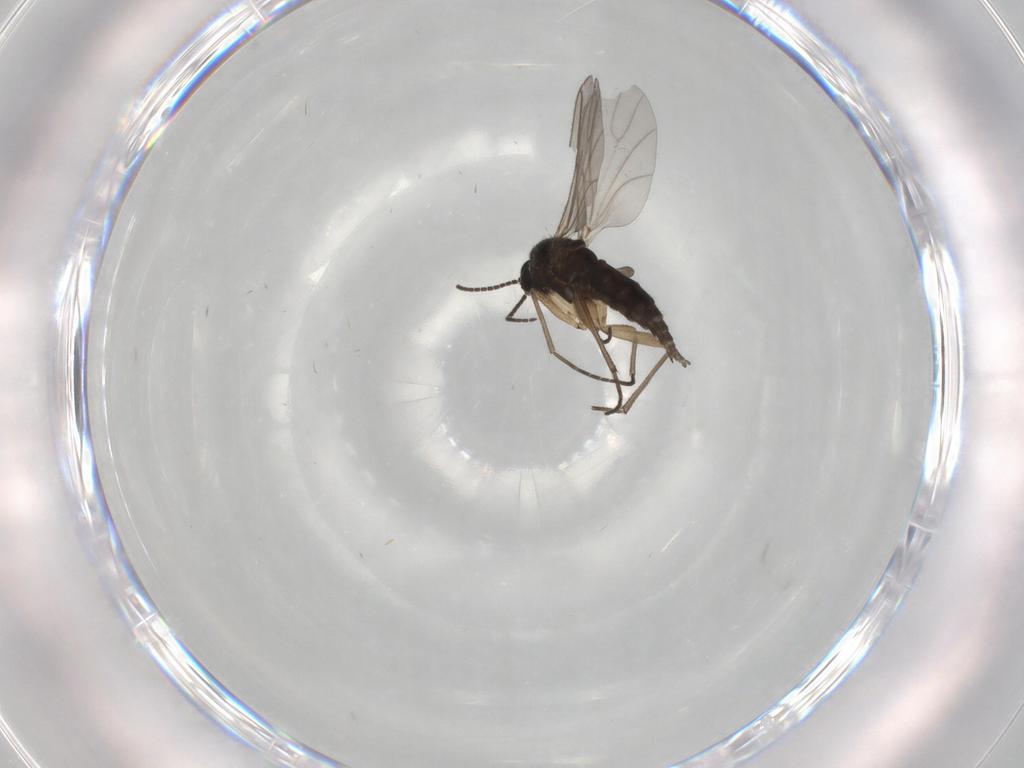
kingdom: Animalia
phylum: Arthropoda
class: Insecta
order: Diptera
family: Sciaridae
